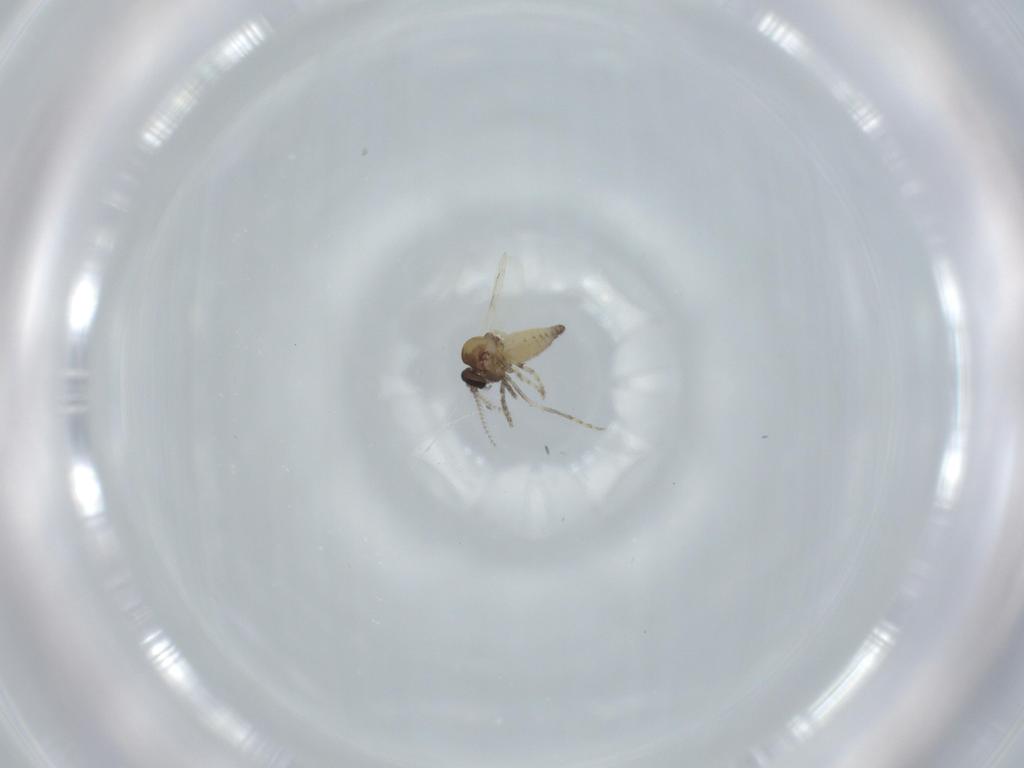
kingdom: Animalia
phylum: Arthropoda
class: Insecta
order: Diptera
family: Ceratopogonidae
